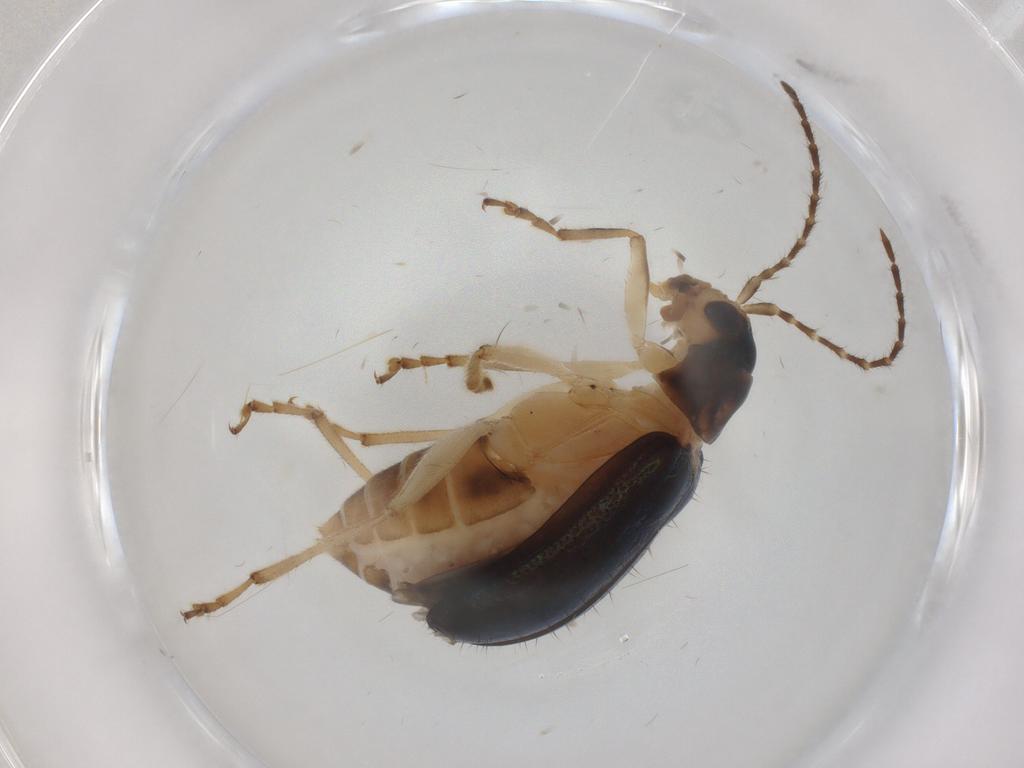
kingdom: Animalia
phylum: Arthropoda
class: Insecta
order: Coleoptera
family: Chrysomelidae
